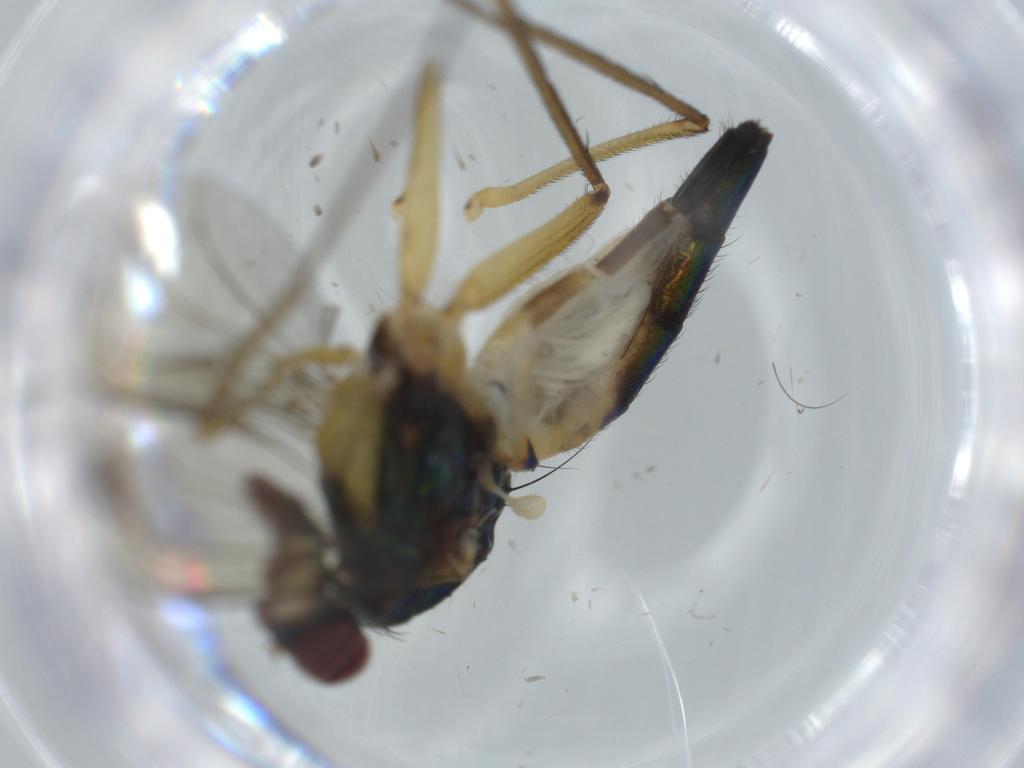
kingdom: Animalia
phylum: Arthropoda
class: Insecta
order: Diptera
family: Dolichopodidae
